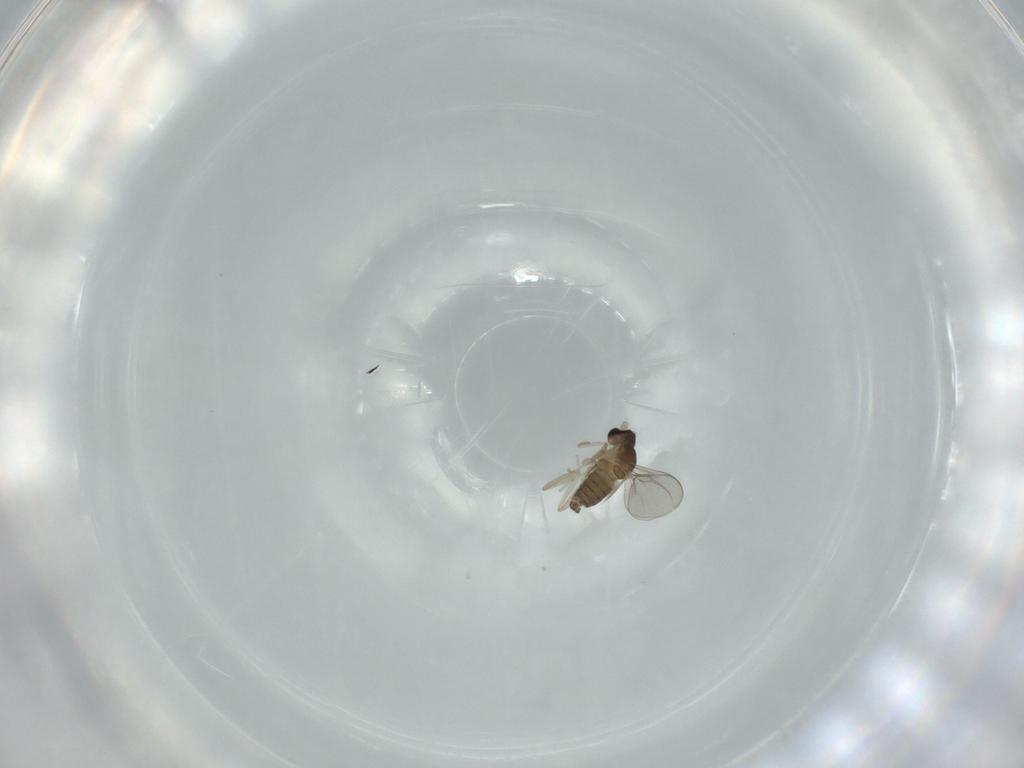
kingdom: Animalia
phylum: Arthropoda
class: Insecta
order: Diptera
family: Cecidomyiidae
